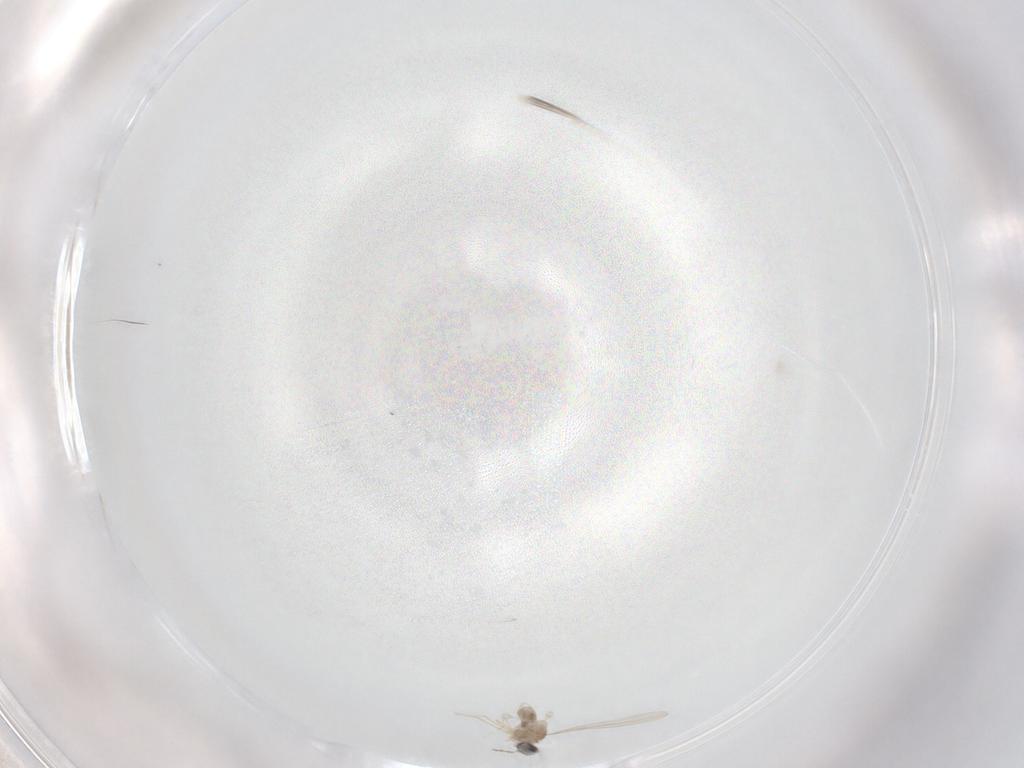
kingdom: Animalia
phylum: Arthropoda
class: Insecta
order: Diptera
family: Cecidomyiidae
